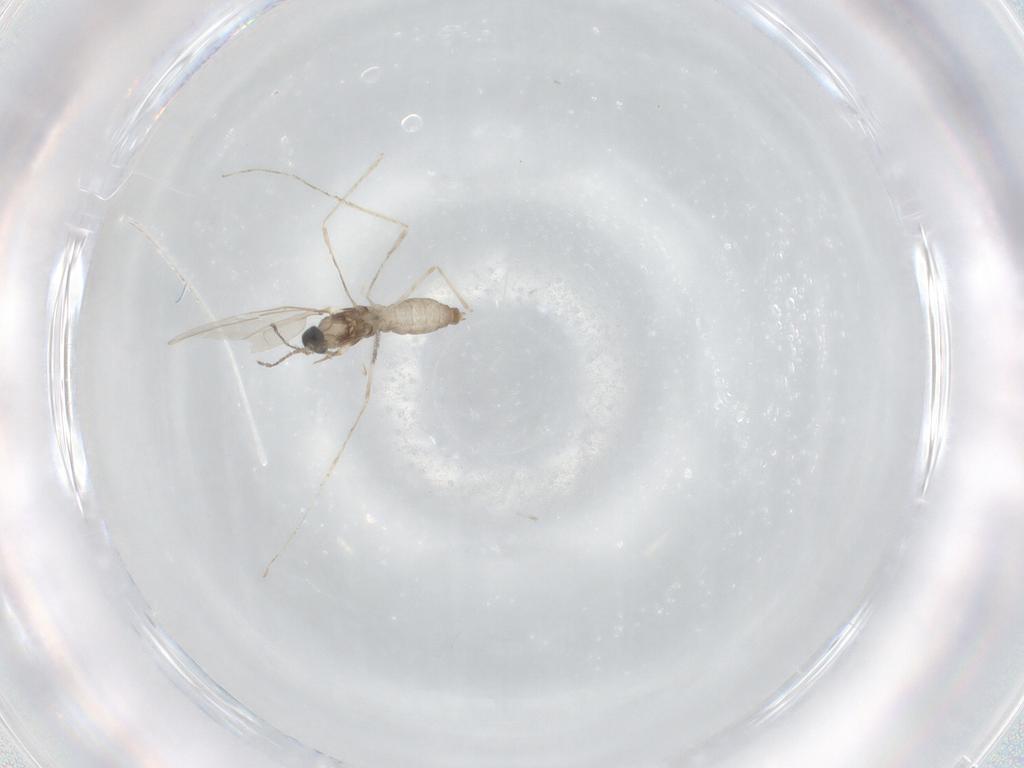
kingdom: Animalia
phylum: Arthropoda
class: Insecta
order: Diptera
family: Cecidomyiidae
